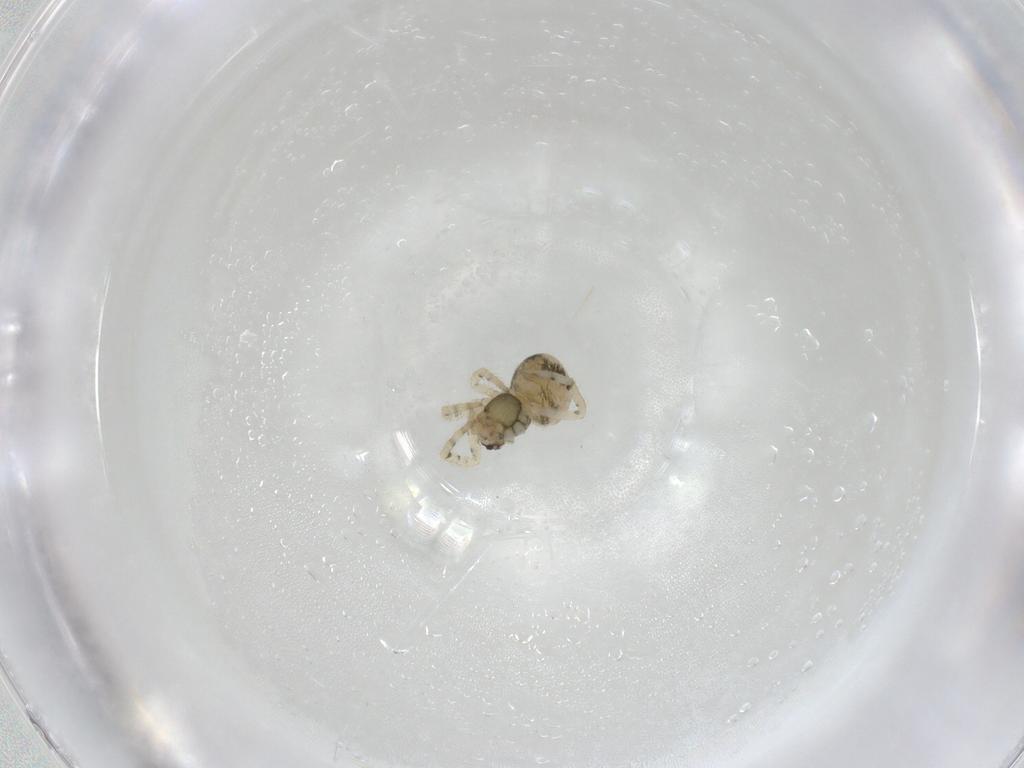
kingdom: Animalia
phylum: Arthropoda
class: Arachnida
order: Araneae
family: Theridiidae
